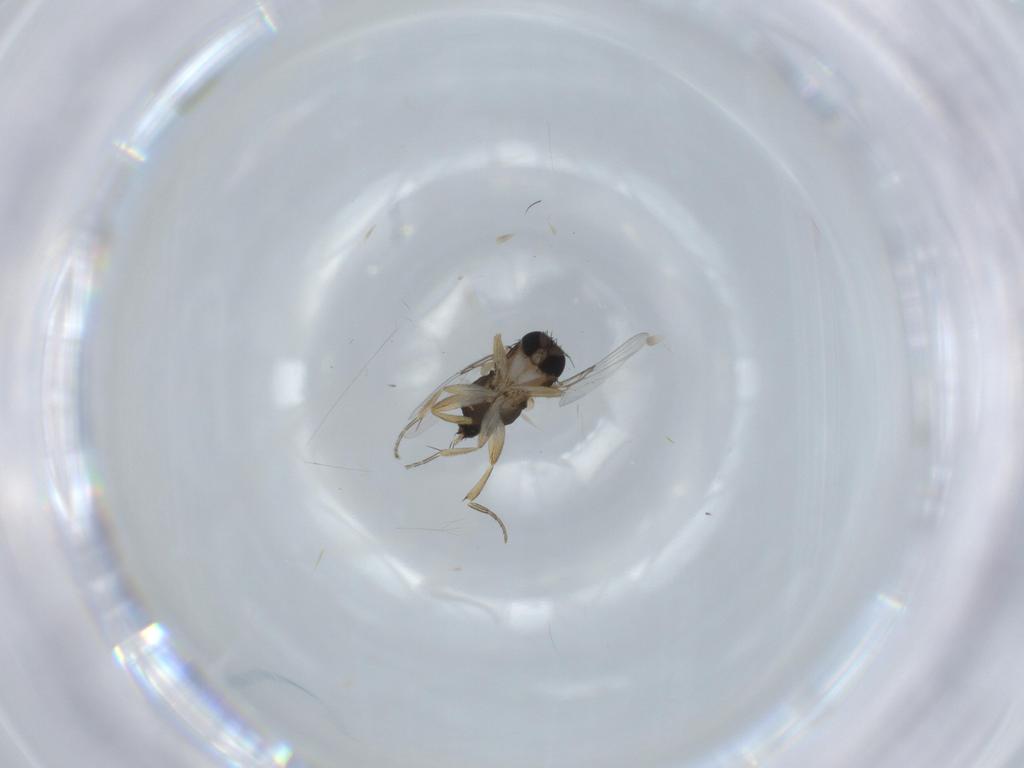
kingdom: Animalia
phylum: Arthropoda
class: Insecta
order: Diptera
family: Phoridae
